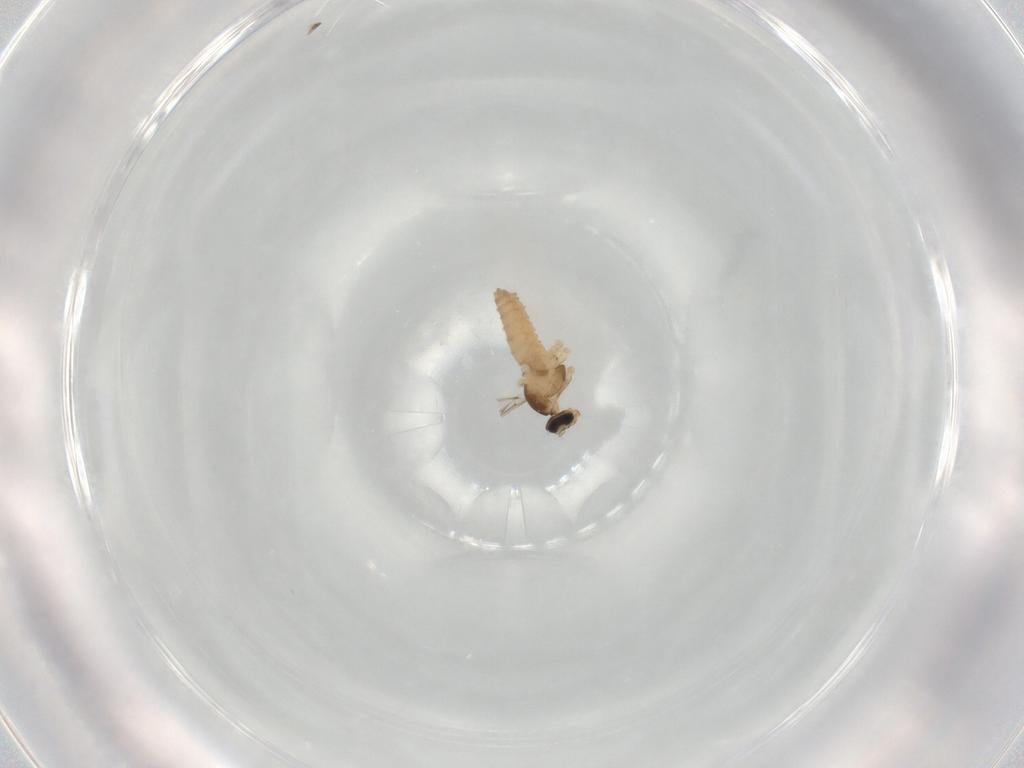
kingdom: Animalia
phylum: Arthropoda
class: Insecta
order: Diptera
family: Cecidomyiidae
